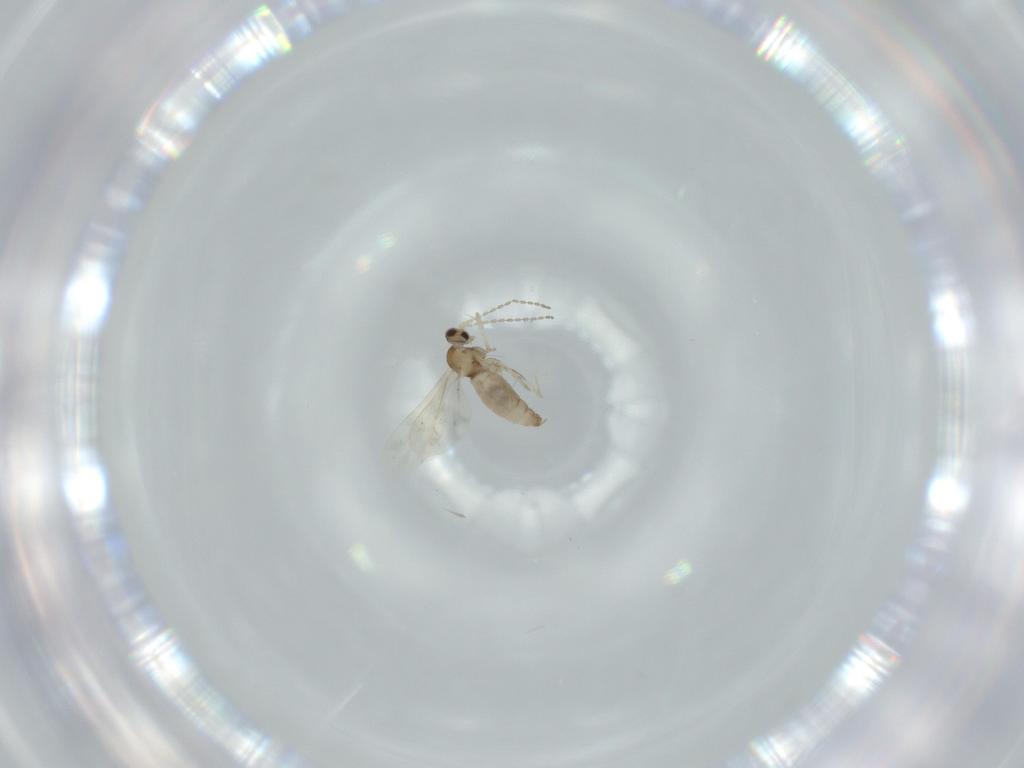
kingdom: Animalia
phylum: Arthropoda
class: Insecta
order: Diptera
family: Cecidomyiidae
